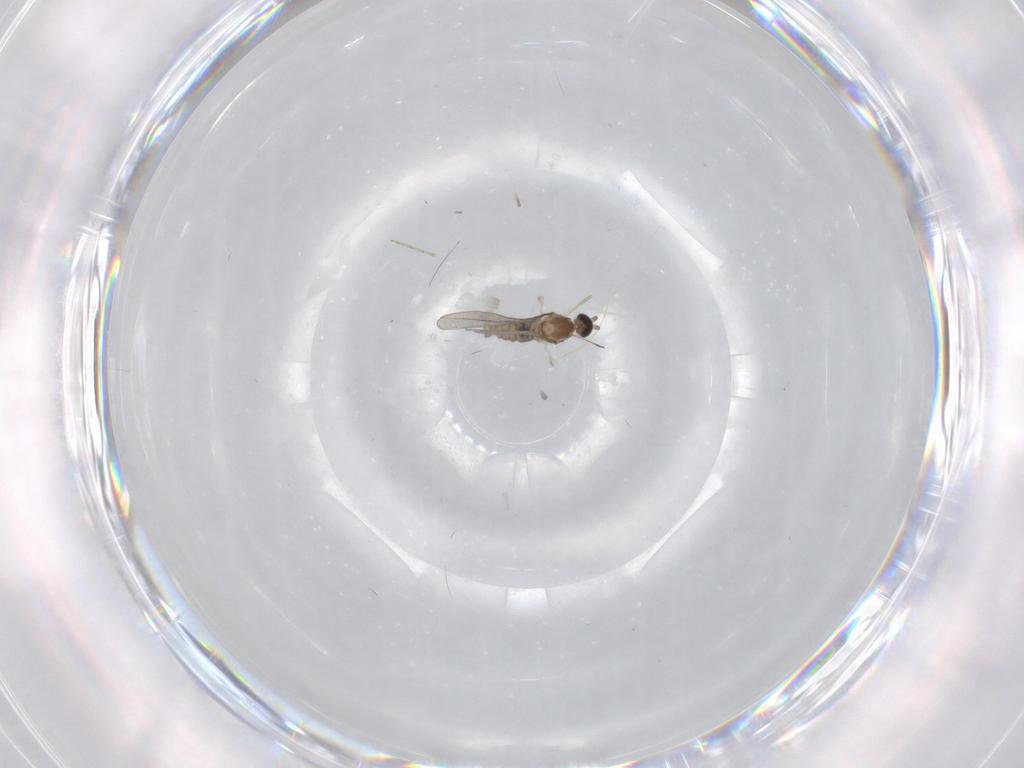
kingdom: Animalia
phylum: Arthropoda
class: Insecta
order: Diptera
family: Cecidomyiidae
